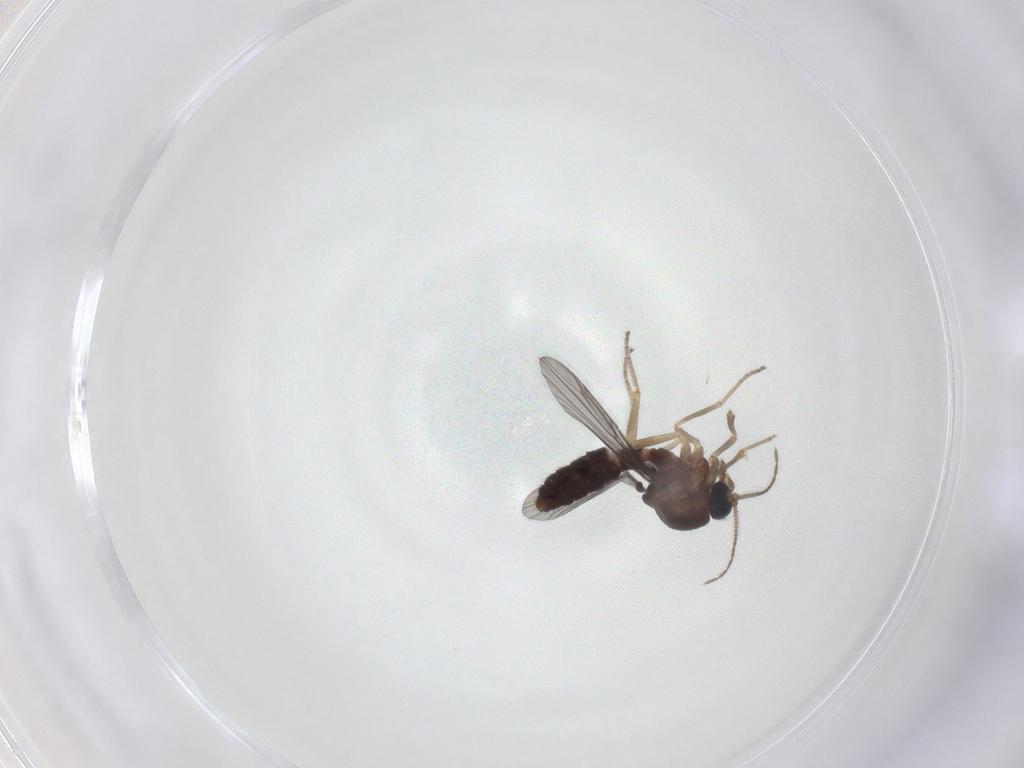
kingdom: Animalia
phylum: Arthropoda
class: Insecta
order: Diptera
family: Ceratopogonidae
